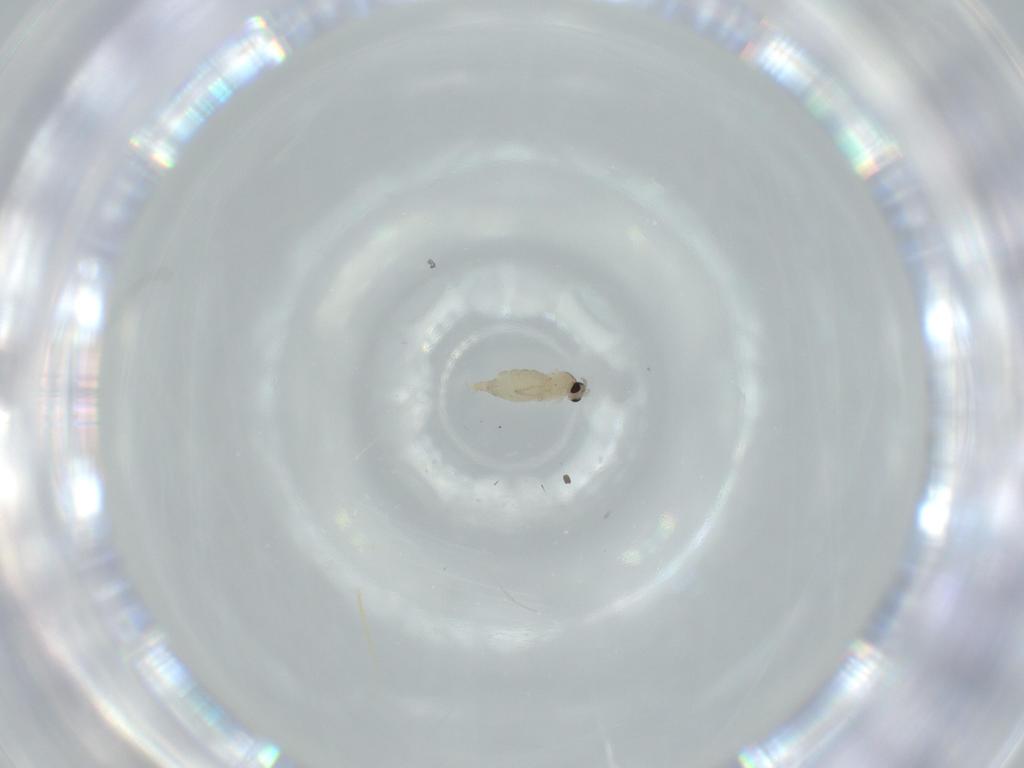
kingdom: Animalia
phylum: Arthropoda
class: Insecta
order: Diptera
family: Cecidomyiidae
